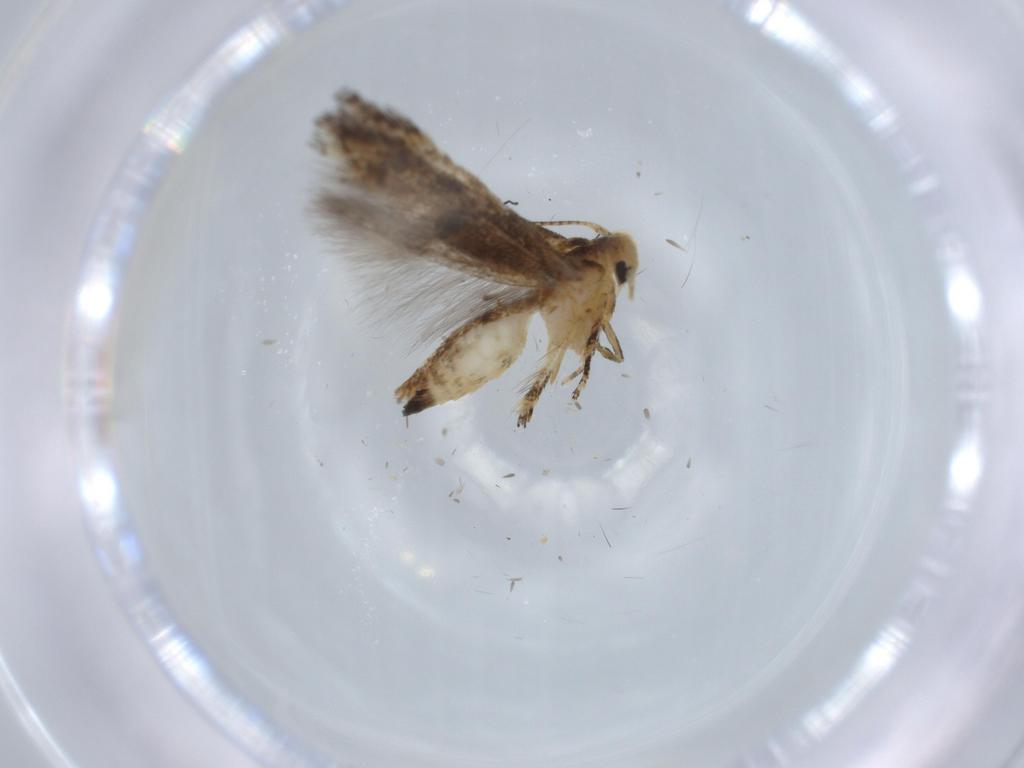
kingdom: Animalia
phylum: Arthropoda
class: Insecta
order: Lepidoptera
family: Momphidae
